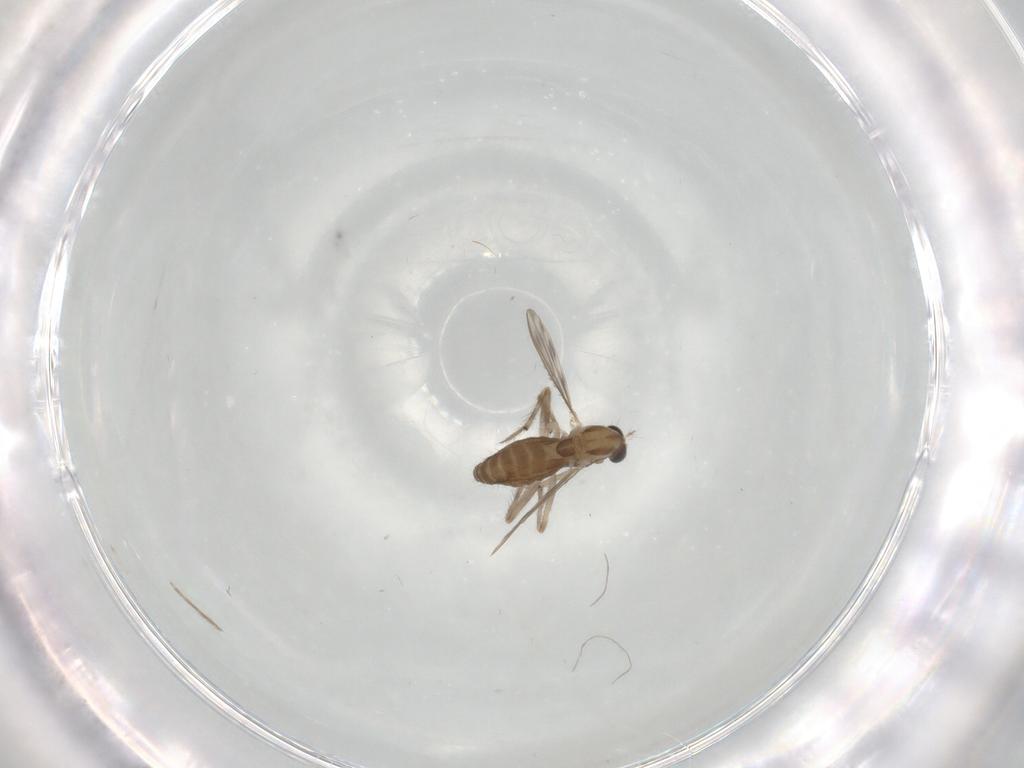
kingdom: Animalia
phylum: Arthropoda
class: Insecta
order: Diptera
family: Chironomidae
